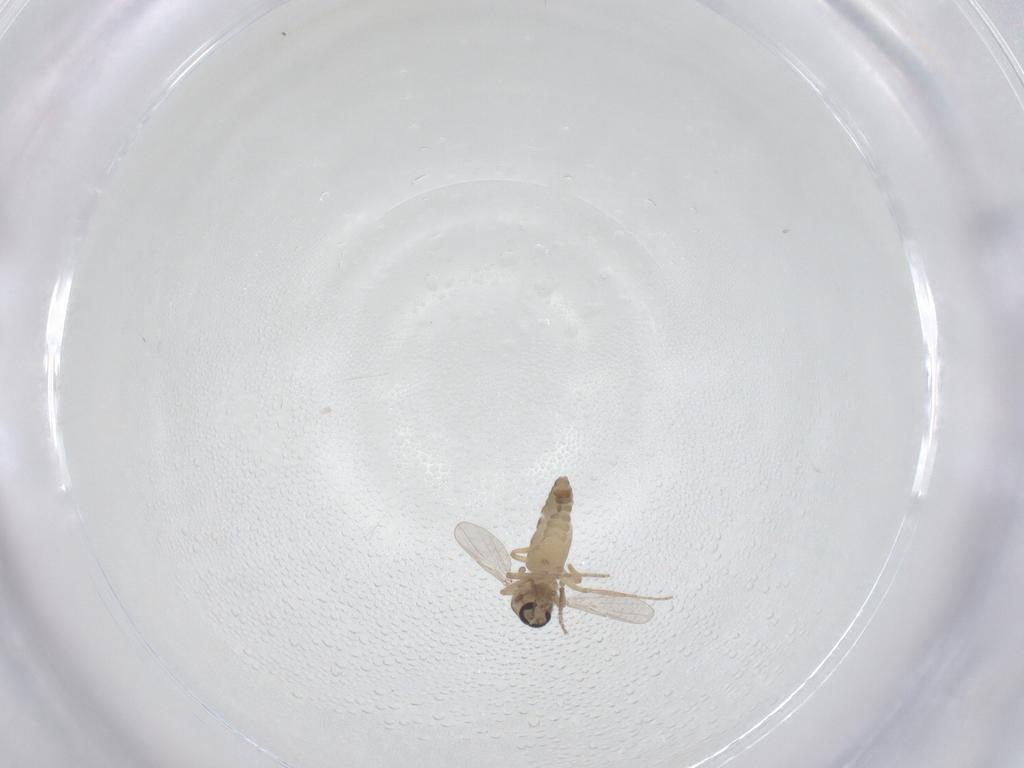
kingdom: Animalia
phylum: Arthropoda
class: Insecta
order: Diptera
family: Ceratopogonidae
